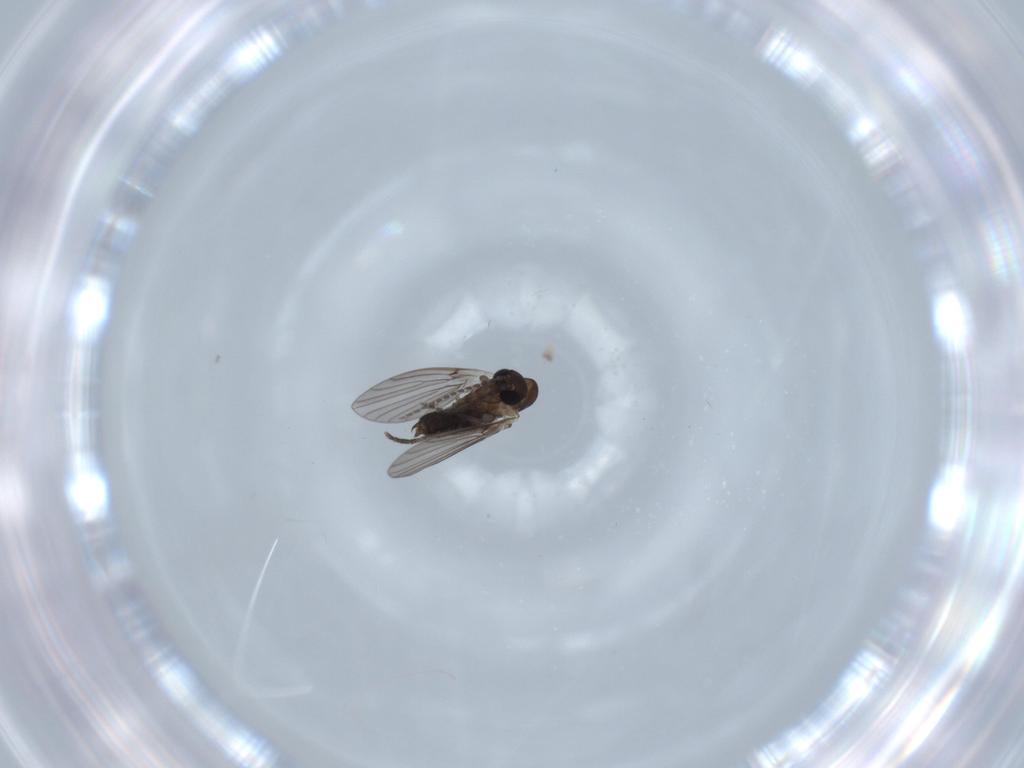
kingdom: Animalia
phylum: Arthropoda
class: Insecta
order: Diptera
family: Psychodidae
